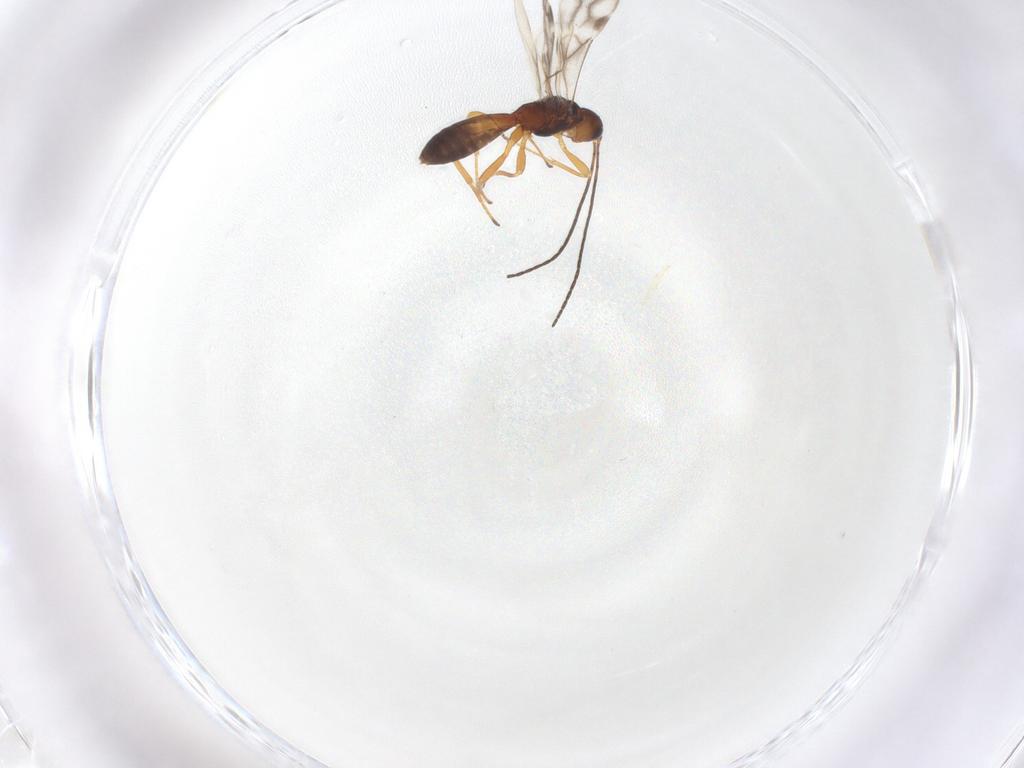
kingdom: Animalia
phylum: Arthropoda
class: Insecta
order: Hymenoptera
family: Braconidae
